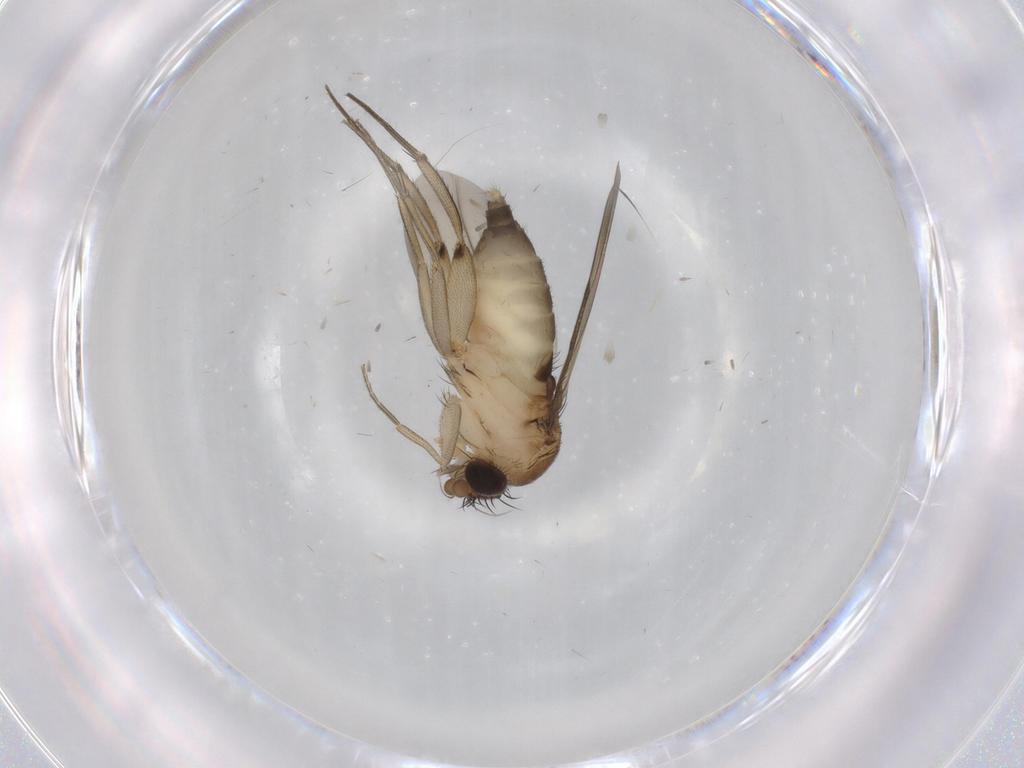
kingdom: Animalia
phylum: Arthropoda
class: Insecta
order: Diptera
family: Phoridae
